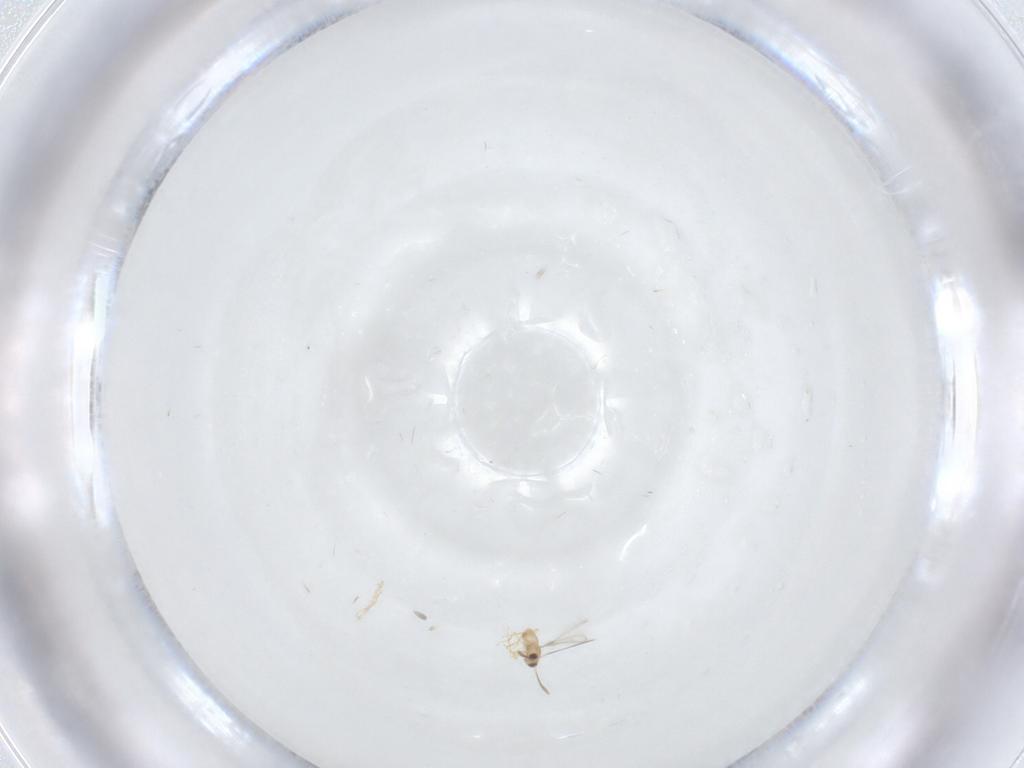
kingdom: Animalia
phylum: Arthropoda
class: Insecta
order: Hymenoptera
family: Mymaridae
